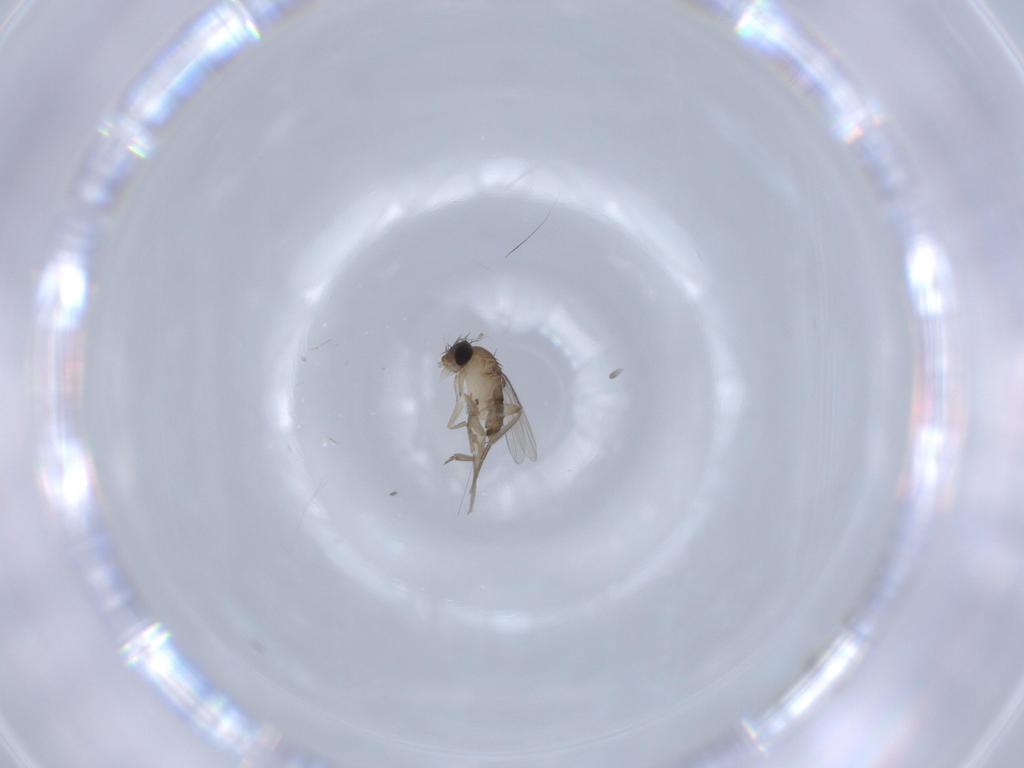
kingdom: Animalia
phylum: Arthropoda
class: Insecta
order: Diptera
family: Phoridae
